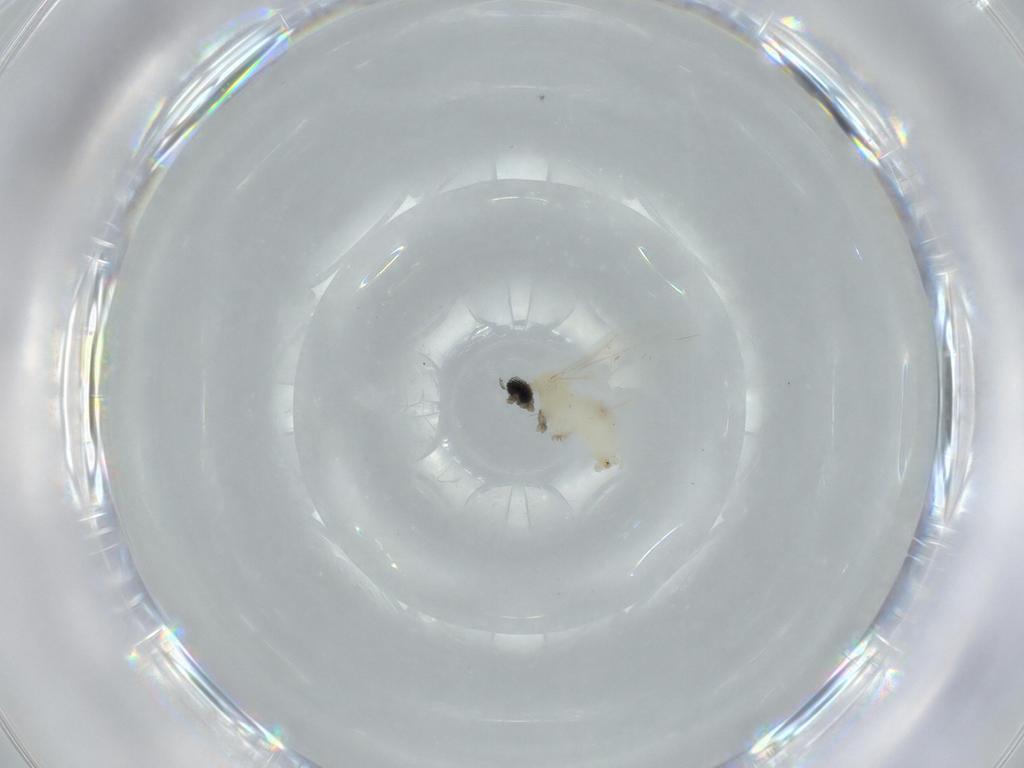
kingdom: Animalia
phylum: Arthropoda
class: Insecta
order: Diptera
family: Cecidomyiidae
